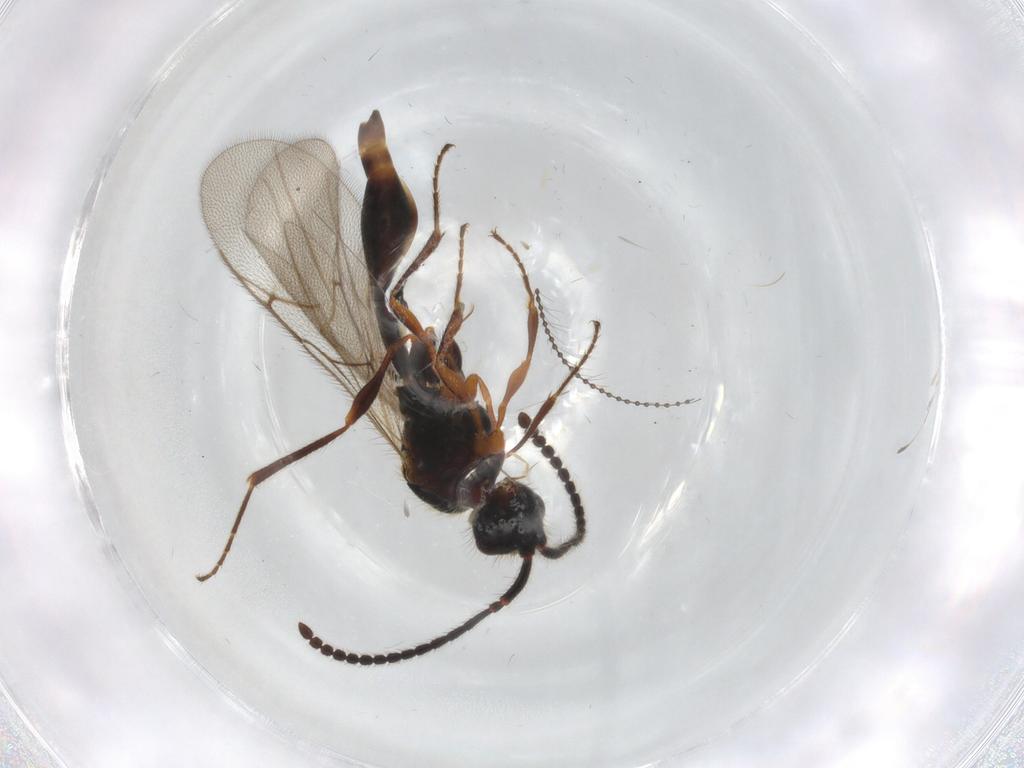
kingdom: Animalia
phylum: Arthropoda
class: Insecta
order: Hymenoptera
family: Diapriidae
